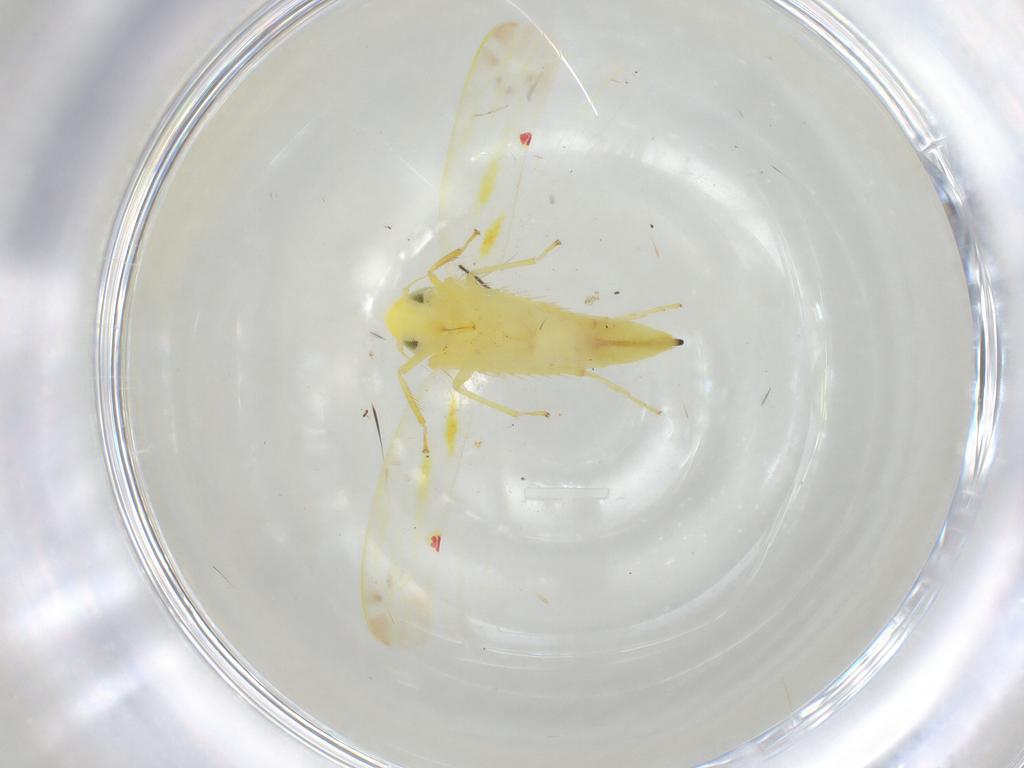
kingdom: Animalia
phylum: Arthropoda
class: Insecta
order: Hemiptera
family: Cicadellidae
